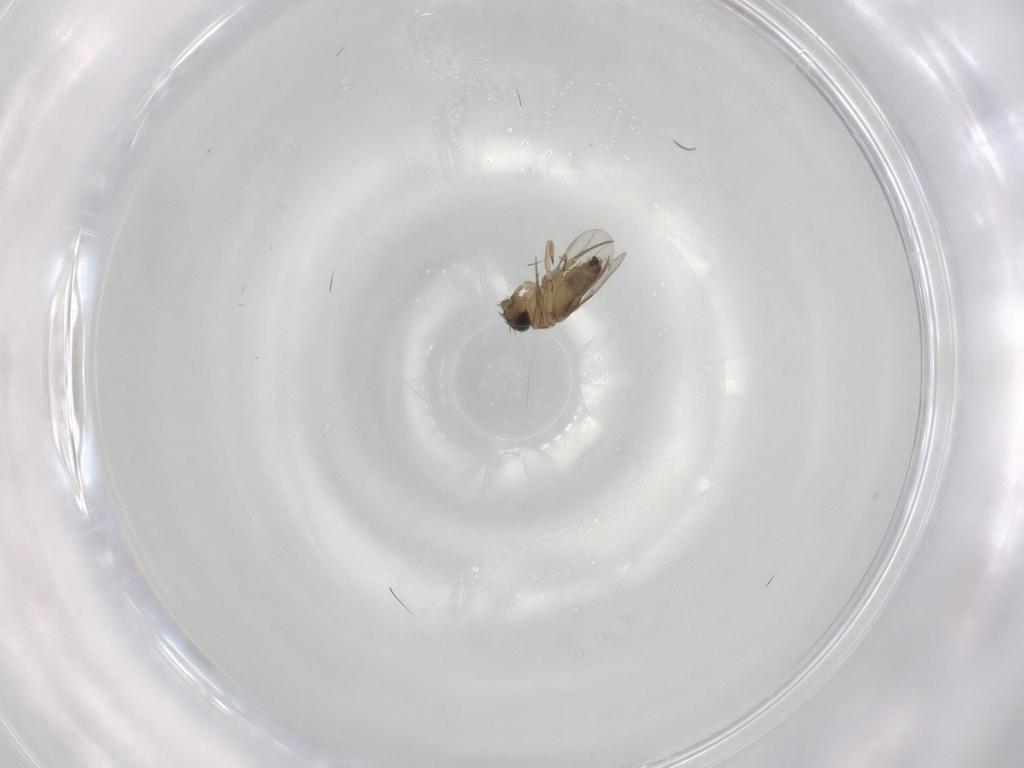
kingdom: Animalia
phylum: Arthropoda
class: Insecta
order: Diptera
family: Phoridae
